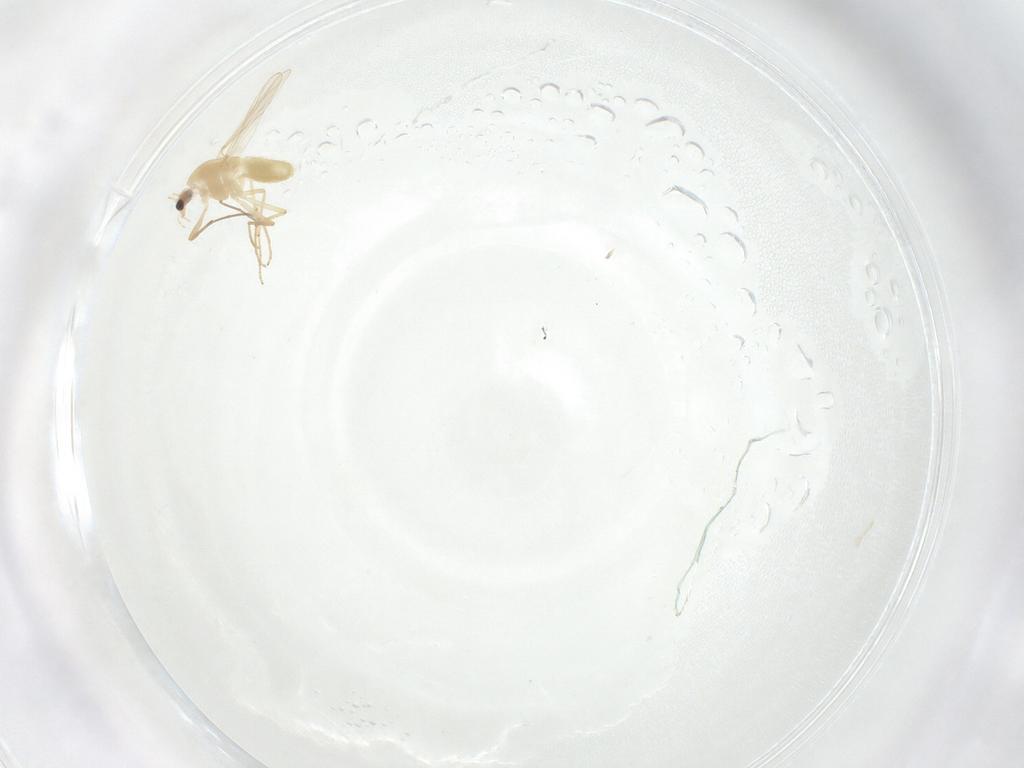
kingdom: Animalia
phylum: Arthropoda
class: Insecta
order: Diptera
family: Chironomidae
